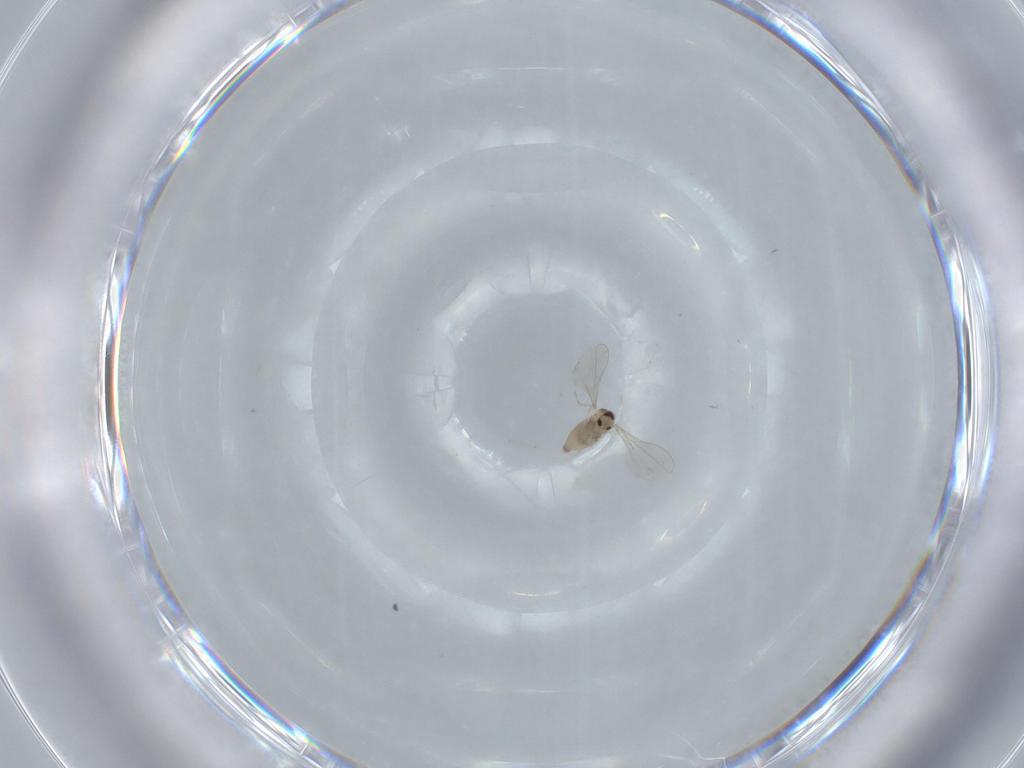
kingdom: Animalia
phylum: Arthropoda
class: Insecta
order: Diptera
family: Cecidomyiidae
